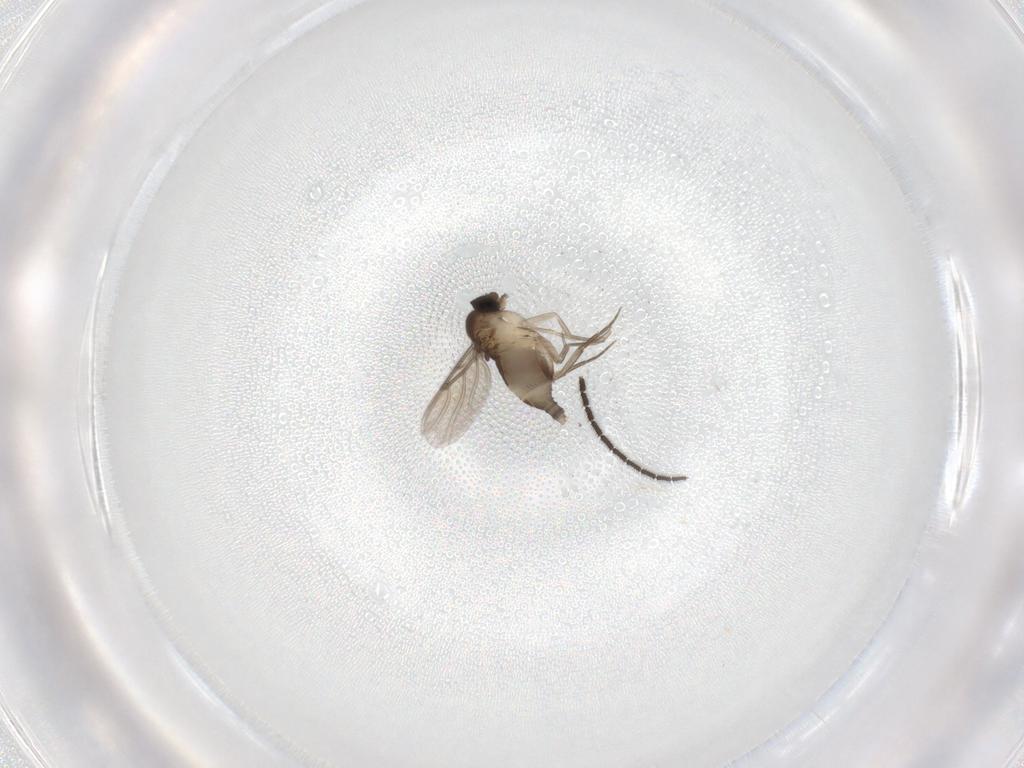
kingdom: Animalia
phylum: Arthropoda
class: Insecta
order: Diptera
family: Phoridae
